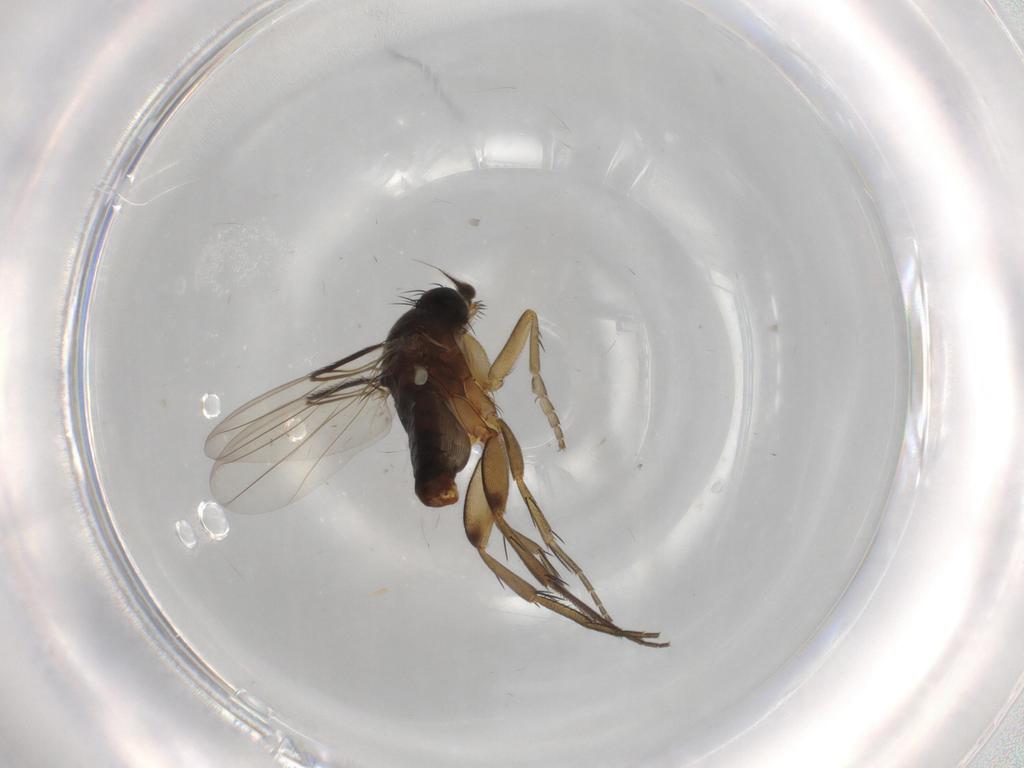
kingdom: Animalia
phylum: Arthropoda
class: Insecta
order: Diptera
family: Phoridae
